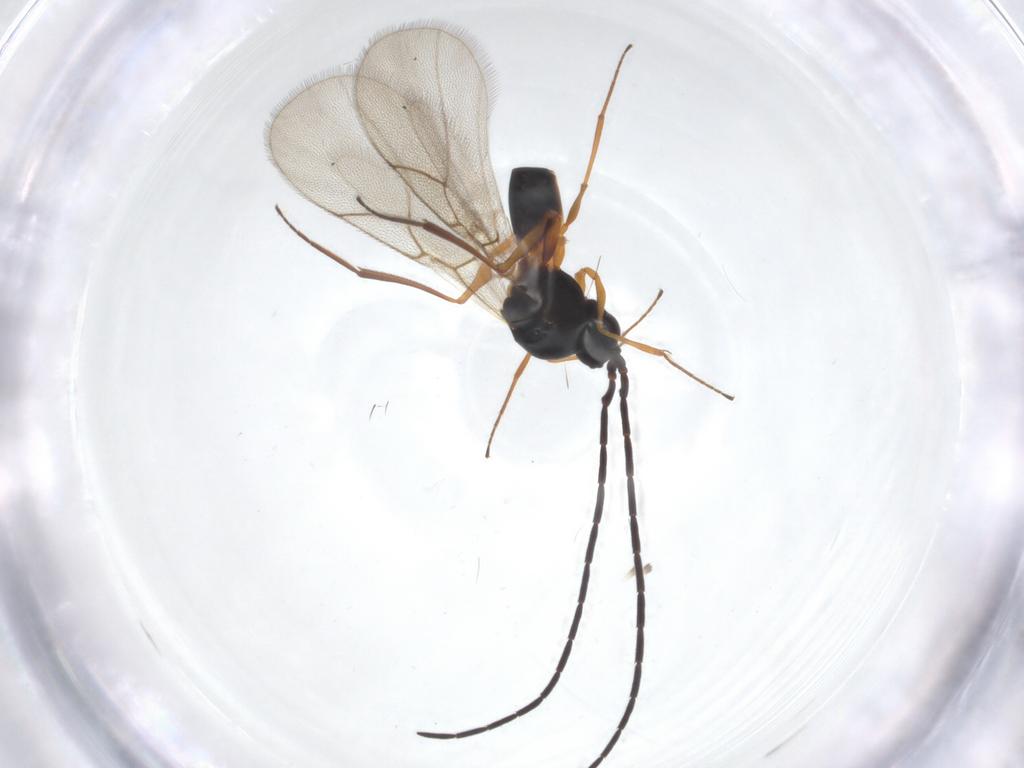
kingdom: Animalia
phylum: Arthropoda
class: Insecta
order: Hymenoptera
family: Figitidae
